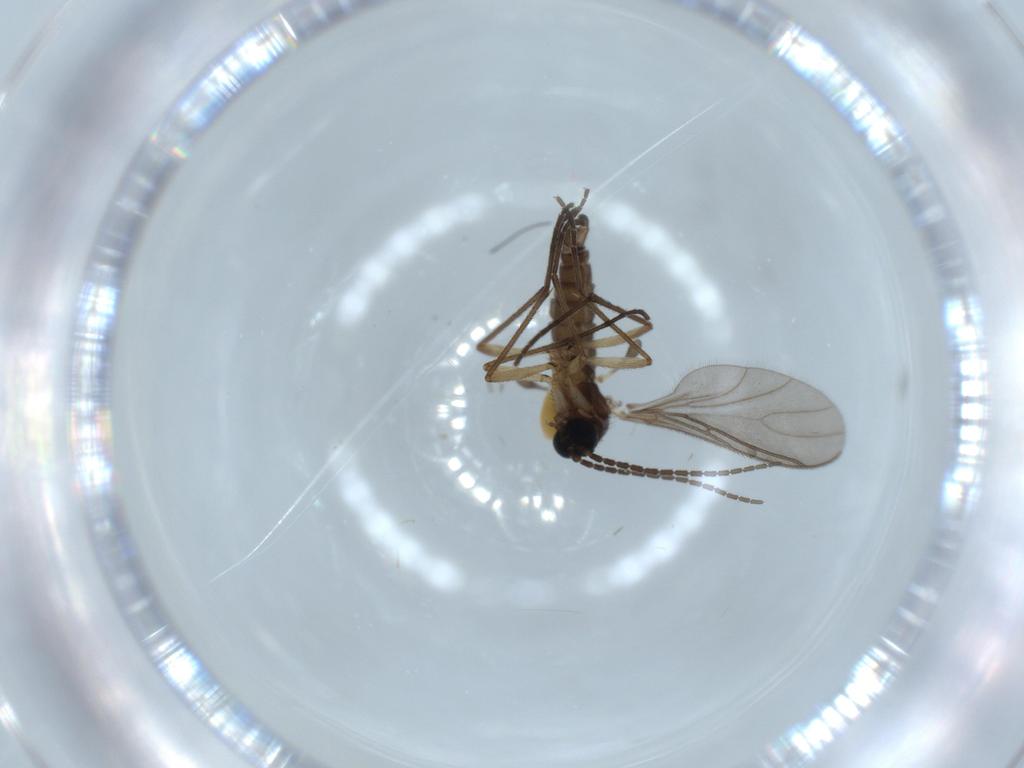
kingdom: Animalia
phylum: Arthropoda
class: Insecta
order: Diptera
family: Sciaridae
